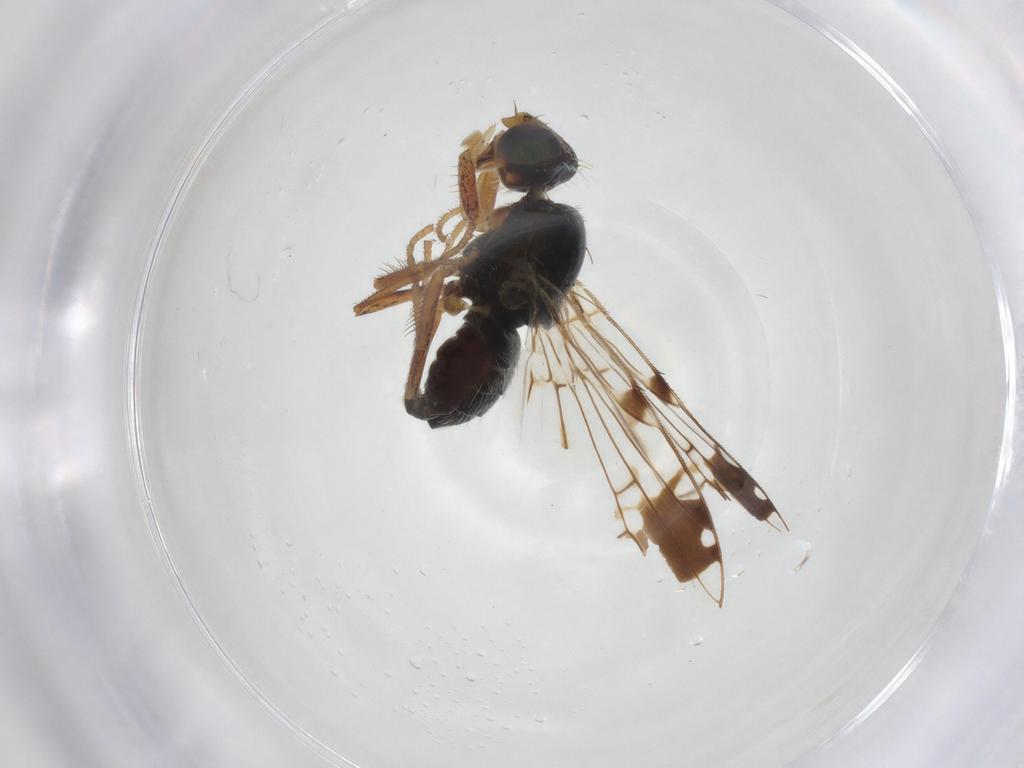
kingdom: Animalia
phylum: Arthropoda
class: Insecta
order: Diptera
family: Tephritidae
